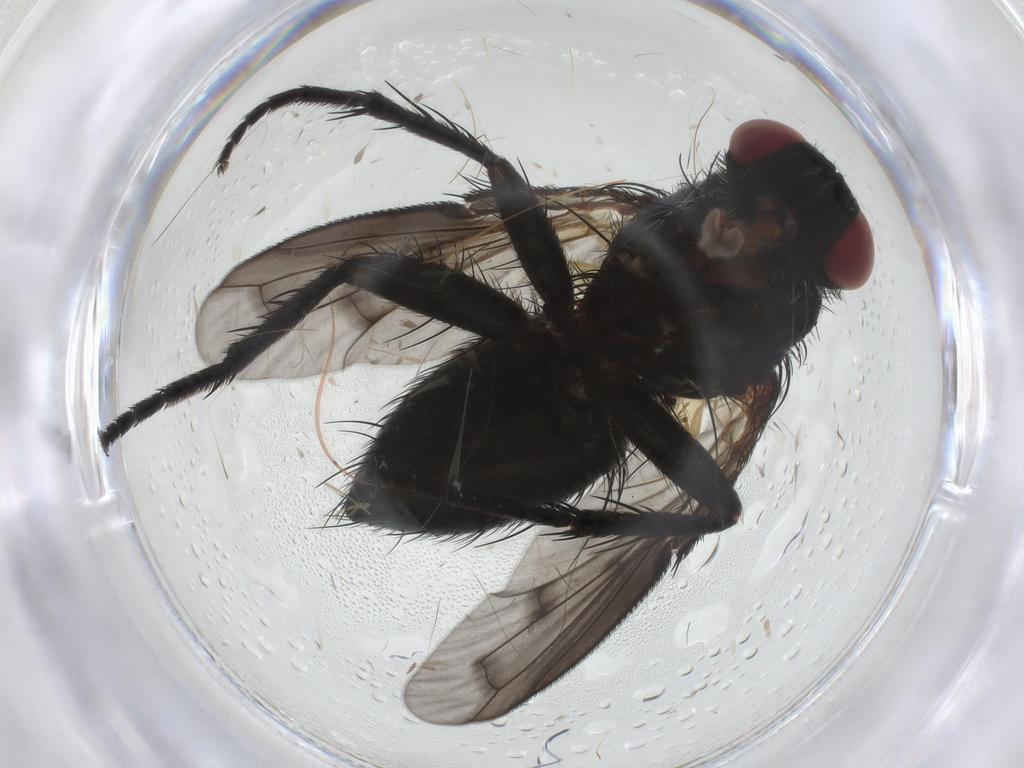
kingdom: Animalia
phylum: Arthropoda
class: Insecta
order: Diptera
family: Tachinidae
